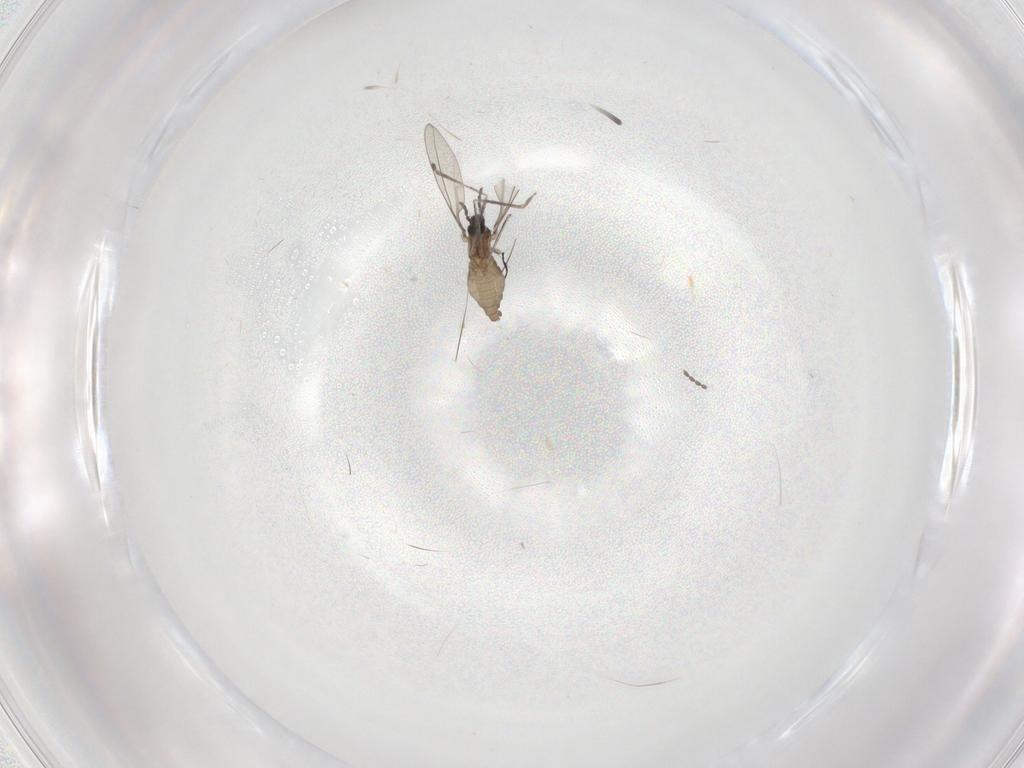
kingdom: Animalia
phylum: Arthropoda
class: Insecta
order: Diptera
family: Cecidomyiidae
